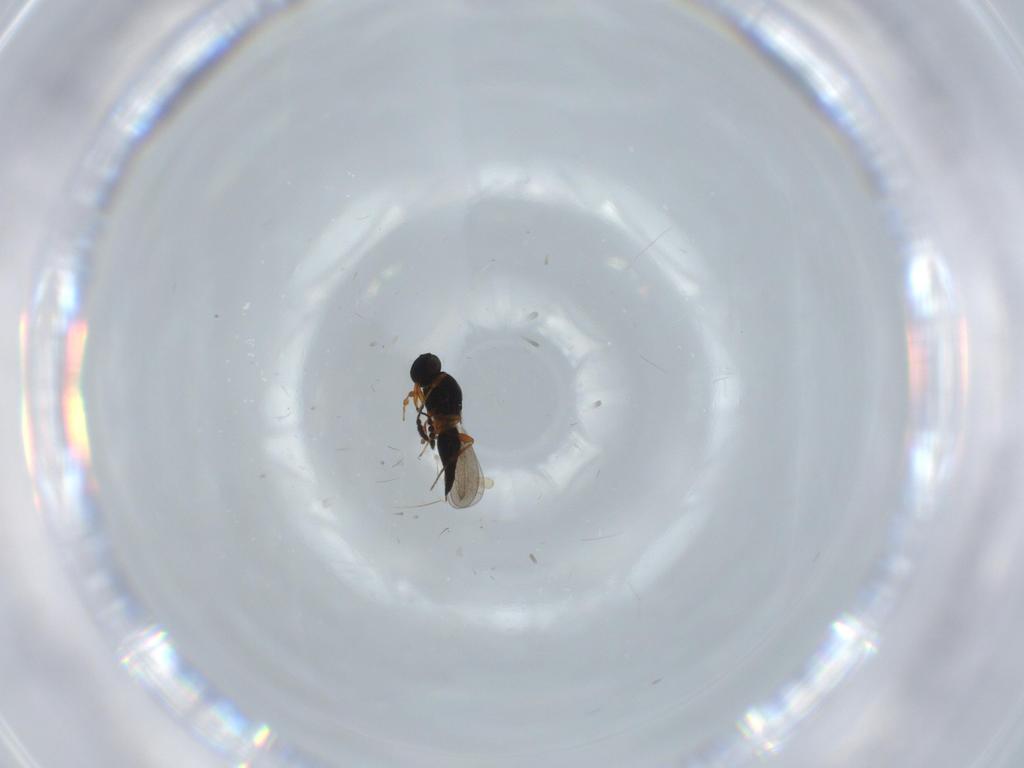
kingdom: Animalia
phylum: Arthropoda
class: Insecta
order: Hymenoptera
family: Platygastridae
